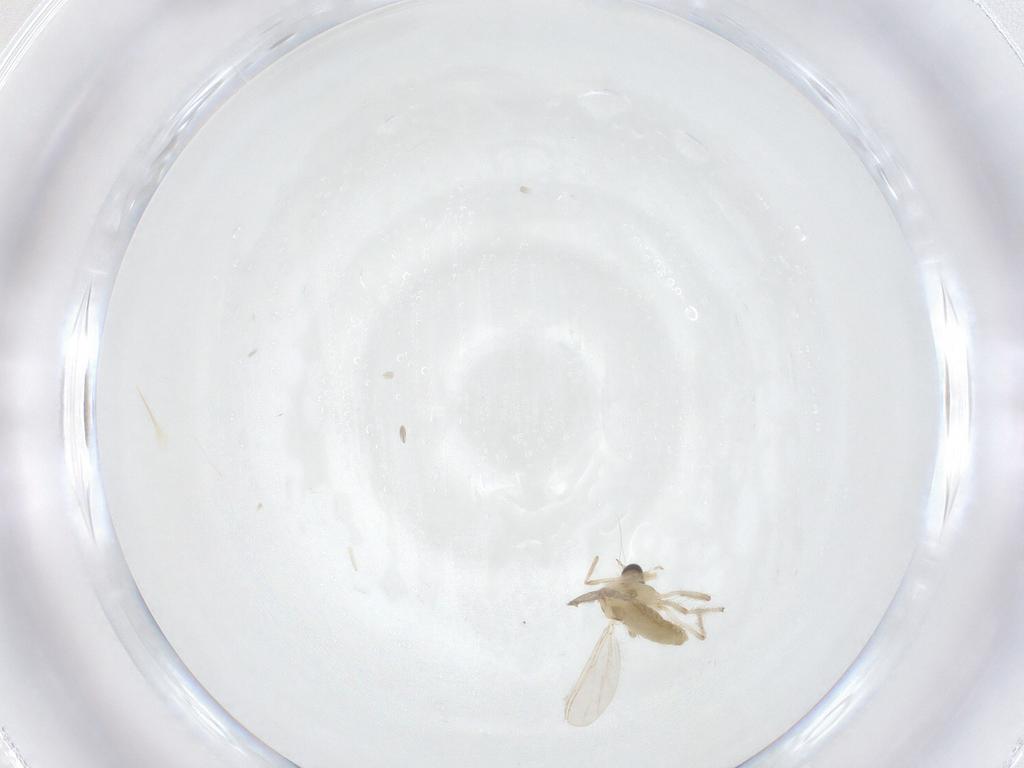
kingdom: Animalia
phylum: Arthropoda
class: Insecta
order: Diptera
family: Chironomidae
